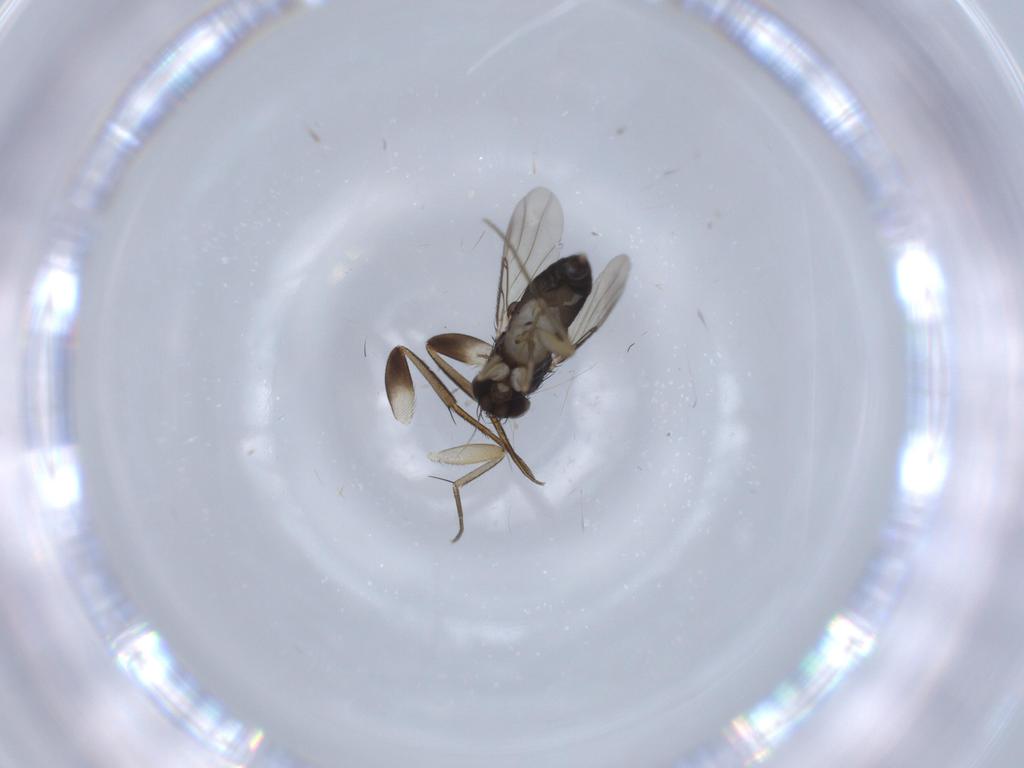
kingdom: Animalia
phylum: Arthropoda
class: Insecta
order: Diptera
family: Phoridae
